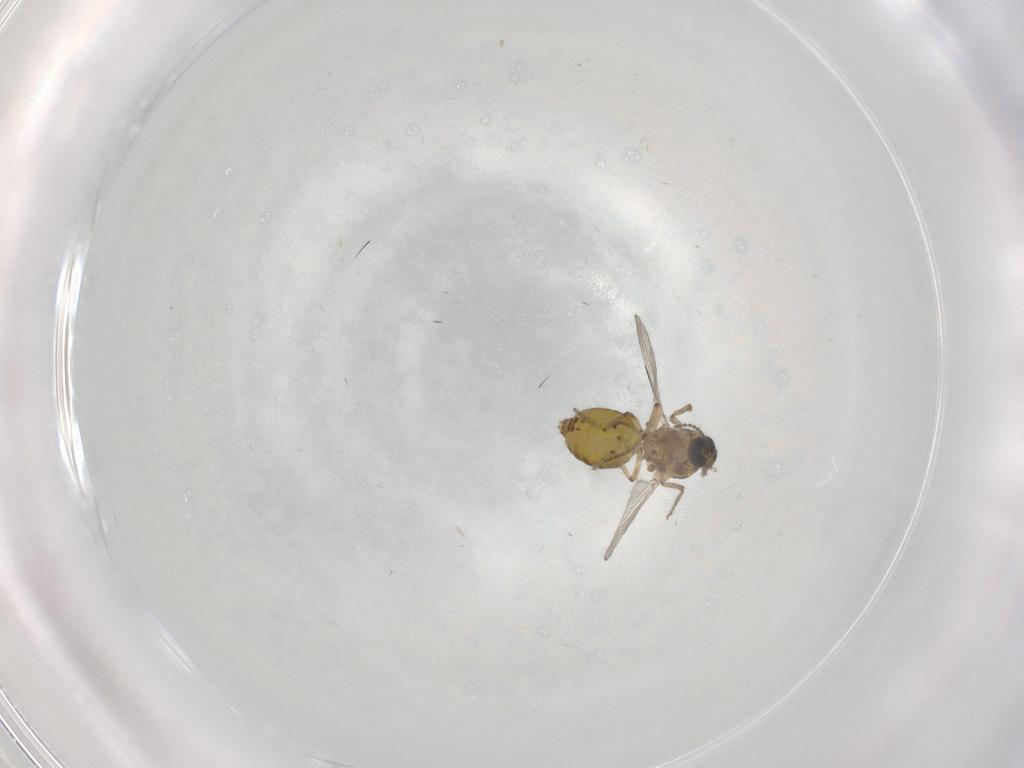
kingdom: Animalia
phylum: Arthropoda
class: Insecta
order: Diptera
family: Ceratopogonidae
